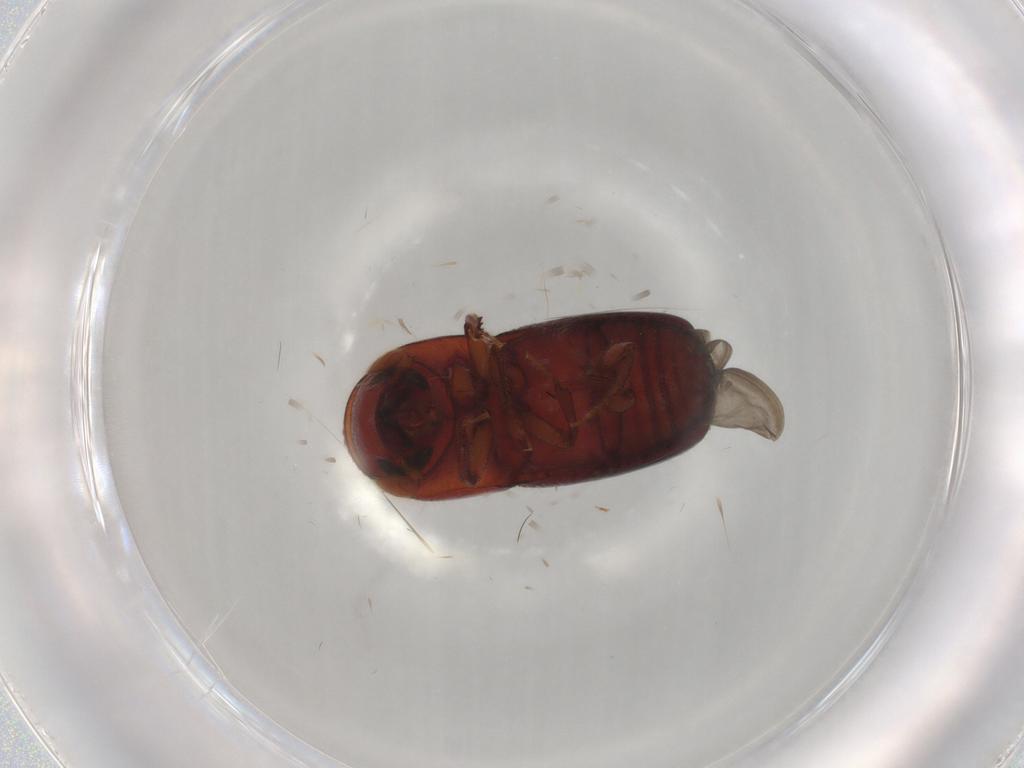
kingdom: Animalia
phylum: Arthropoda
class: Insecta
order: Coleoptera
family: Curculionidae
